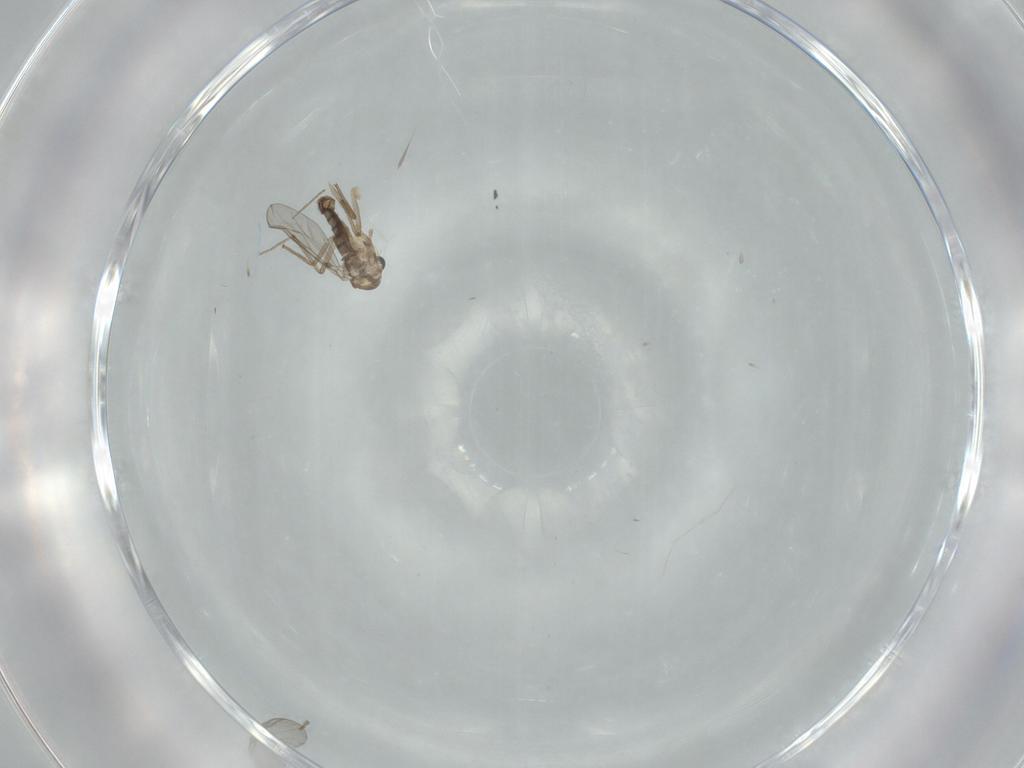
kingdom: Animalia
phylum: Arthropoda
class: Insecta
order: Diptera
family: Chironomidae
